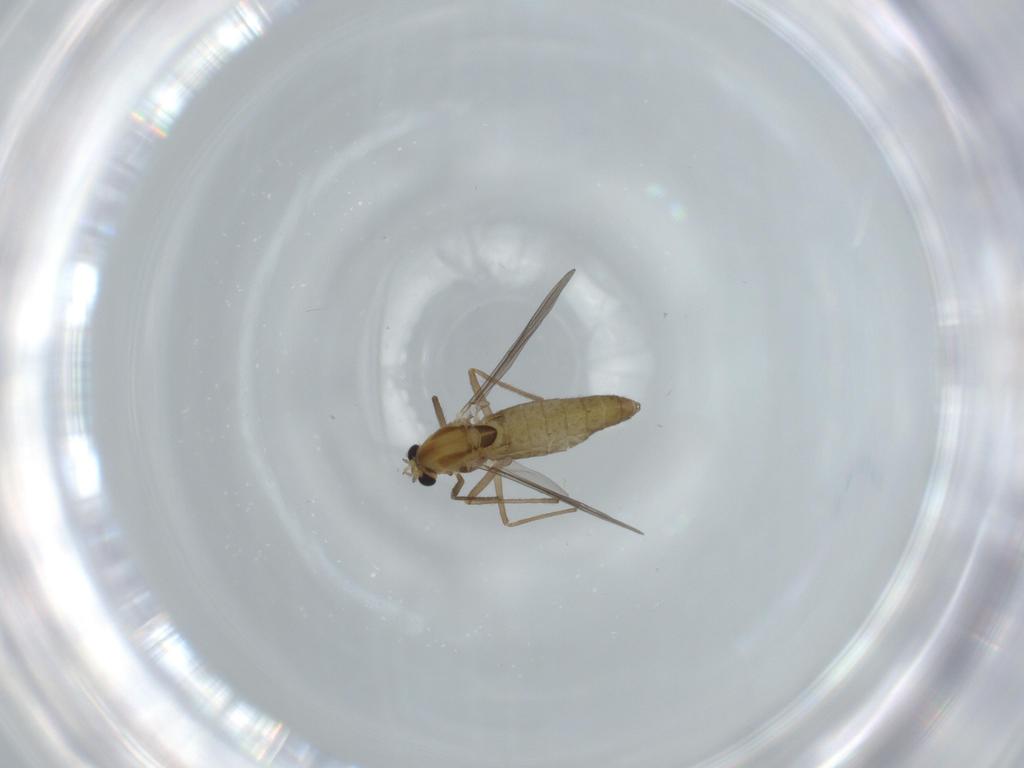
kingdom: Animalia
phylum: Arthropoda
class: Insecta
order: Diptera
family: Chironomidae
